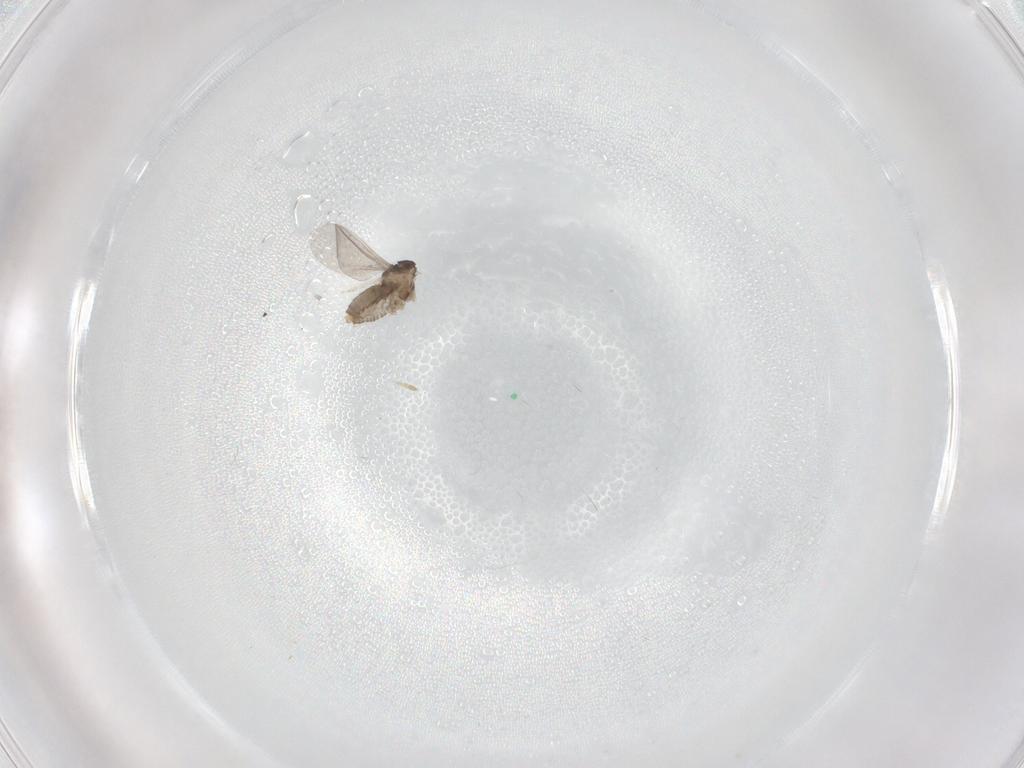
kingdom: Animalia
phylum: Arthropoda
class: Insecta
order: Diptera
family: Cecidomyiidae
